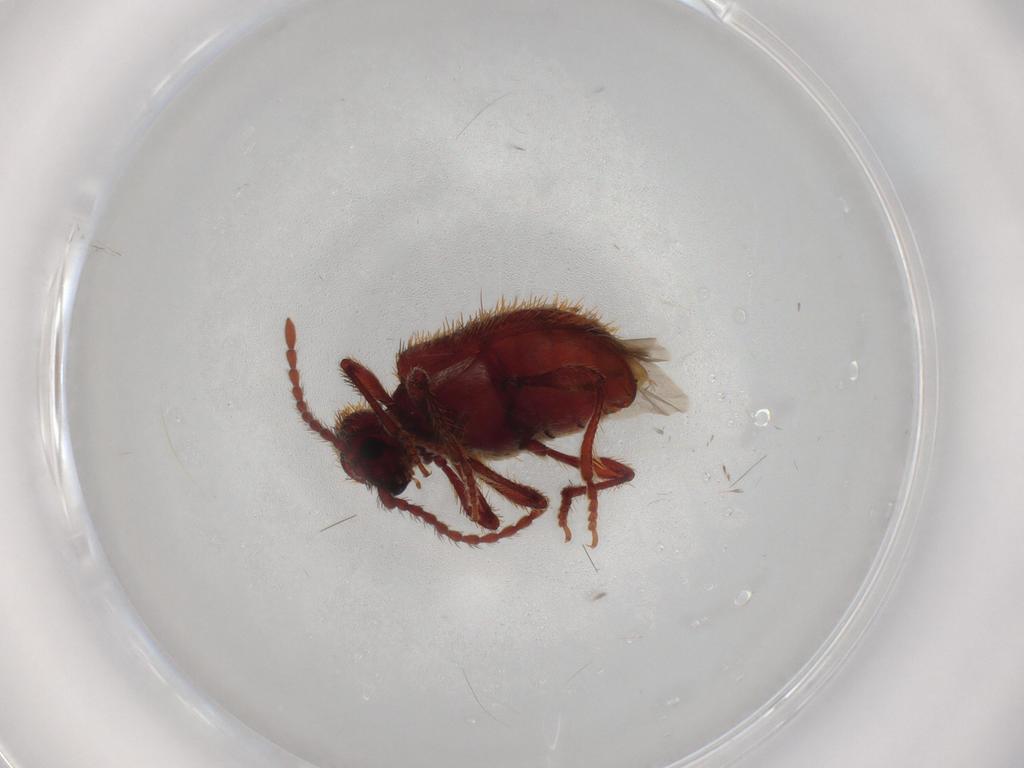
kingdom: Animalia
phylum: Arthropoda
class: Insecta
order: Coleoptera
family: Ptinidae
